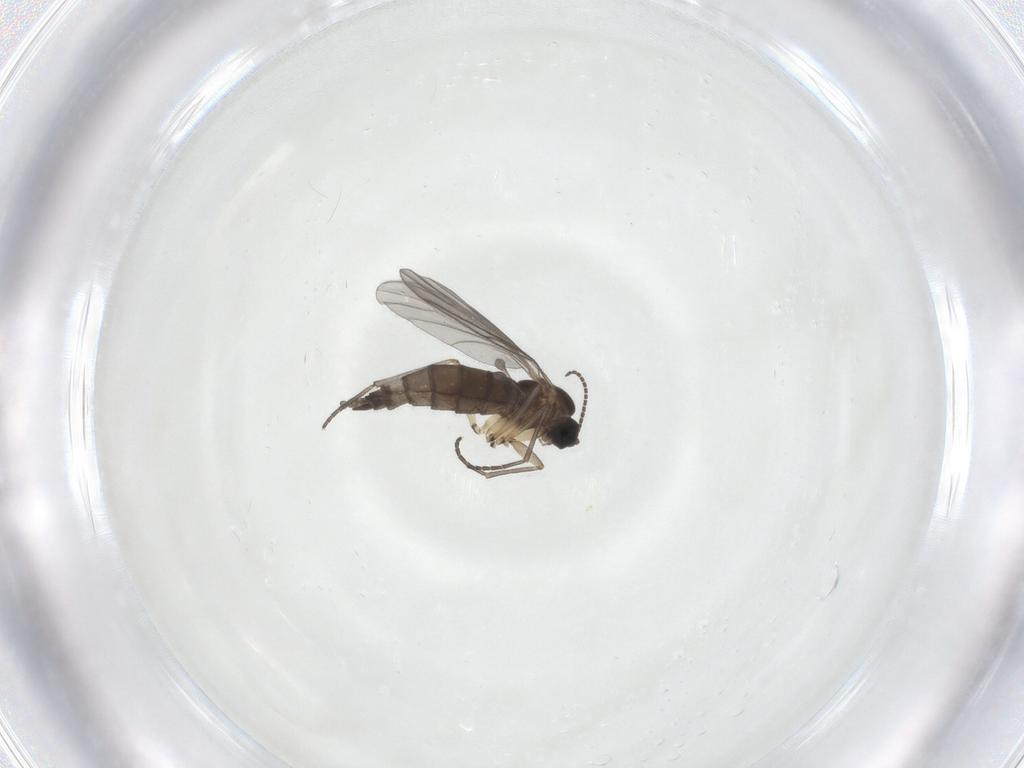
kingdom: Animalia
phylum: Arthropoda
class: Insecta
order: Diptera
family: Sciaridae
